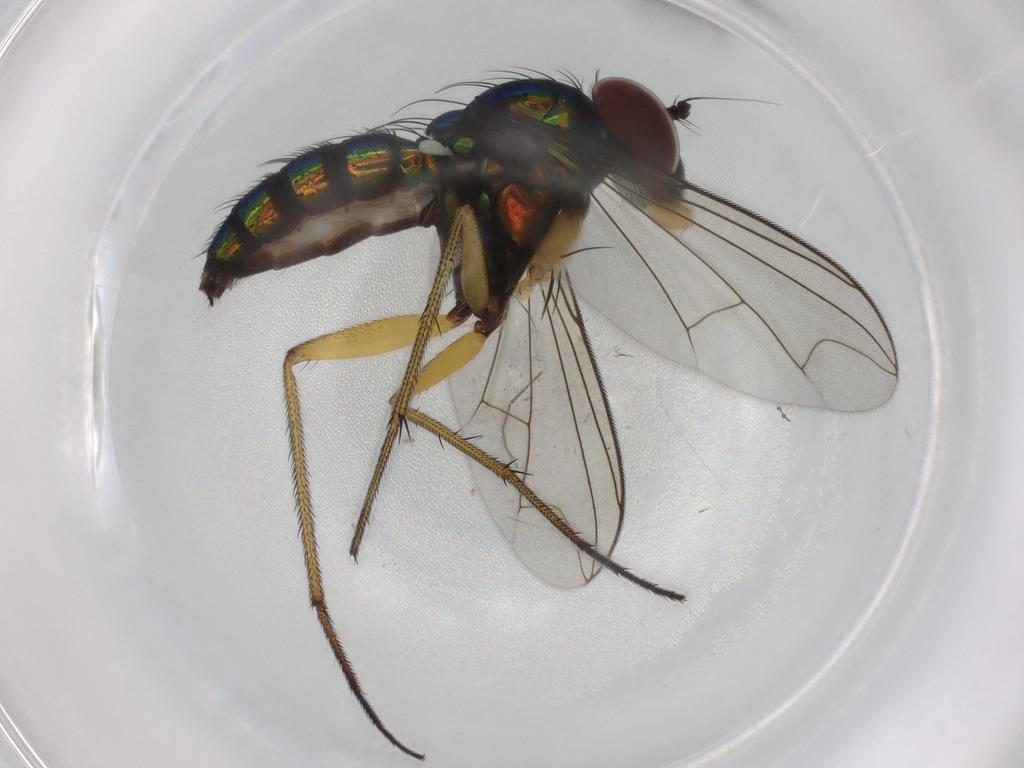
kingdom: Animalia
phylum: Arthropoda
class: Insecta
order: Diptera
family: Dolichopodidae
